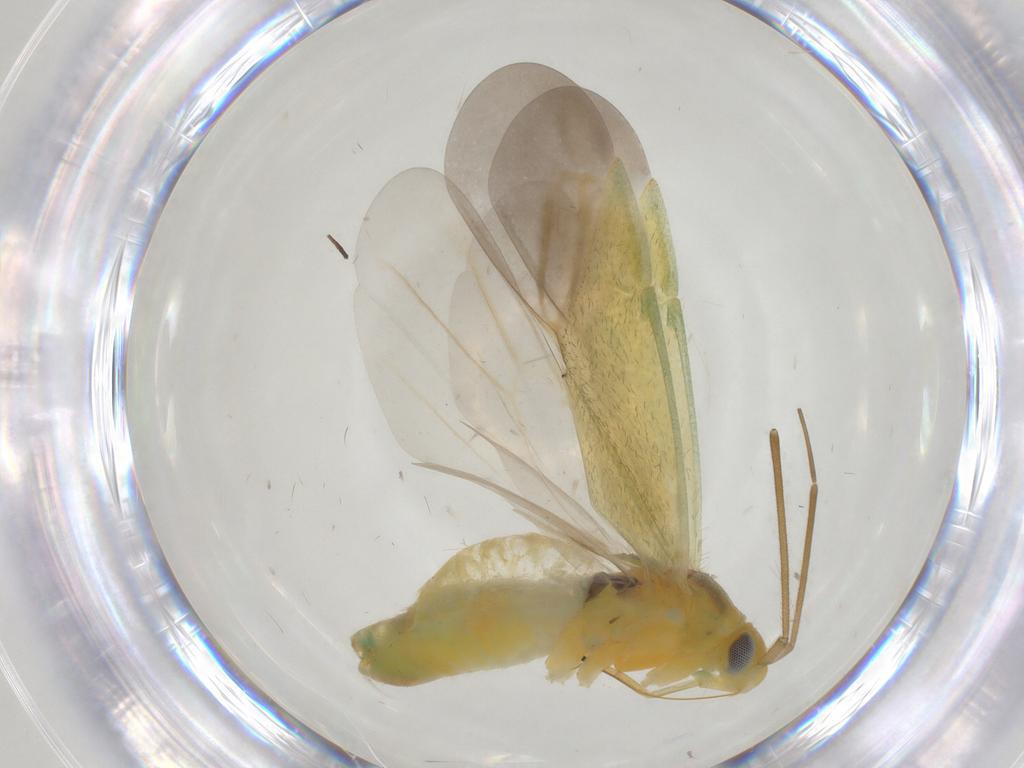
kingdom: Animalia
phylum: Arthropoda
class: Insecta
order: Hemiptera
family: Miridae
